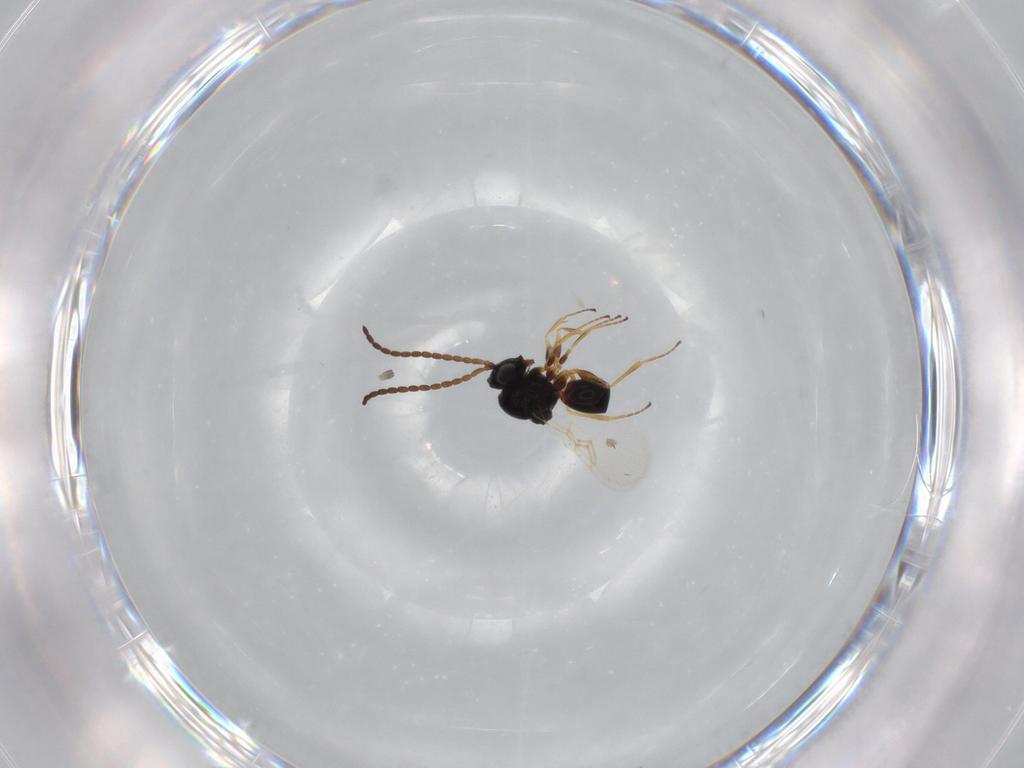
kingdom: Animalia
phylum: Arthropoda
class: Insecta
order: Hymenoptera
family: Figitidae
